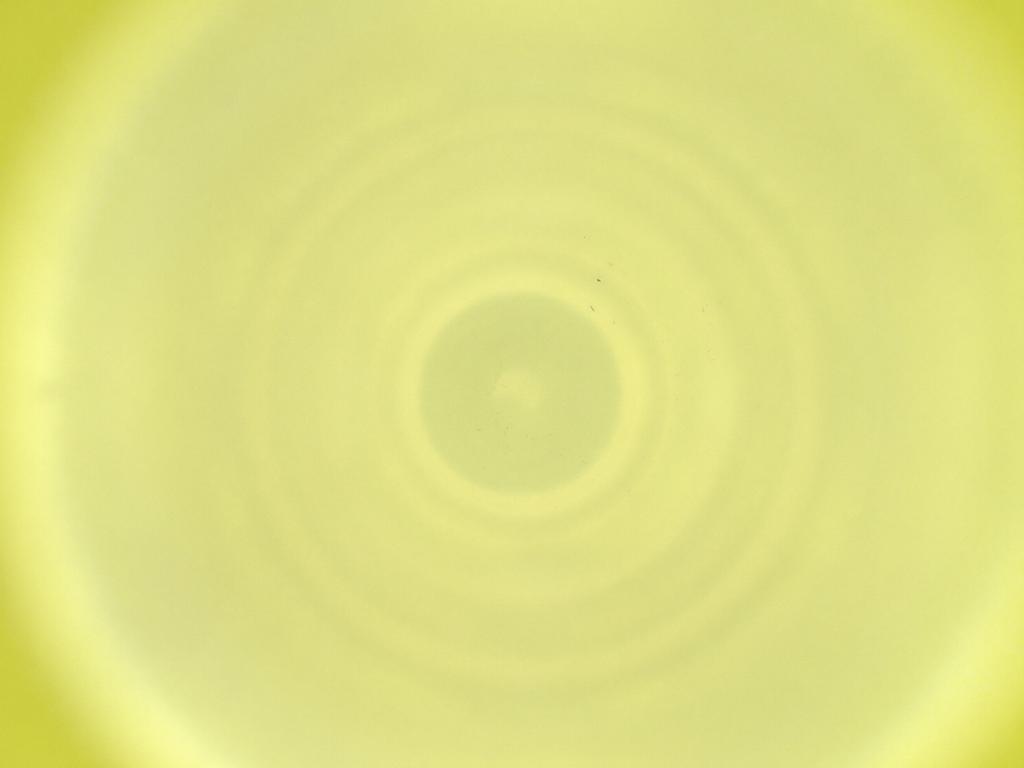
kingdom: Animalia
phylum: Arthropoda
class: Insecta
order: Diptera
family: Cecidomyiidae
